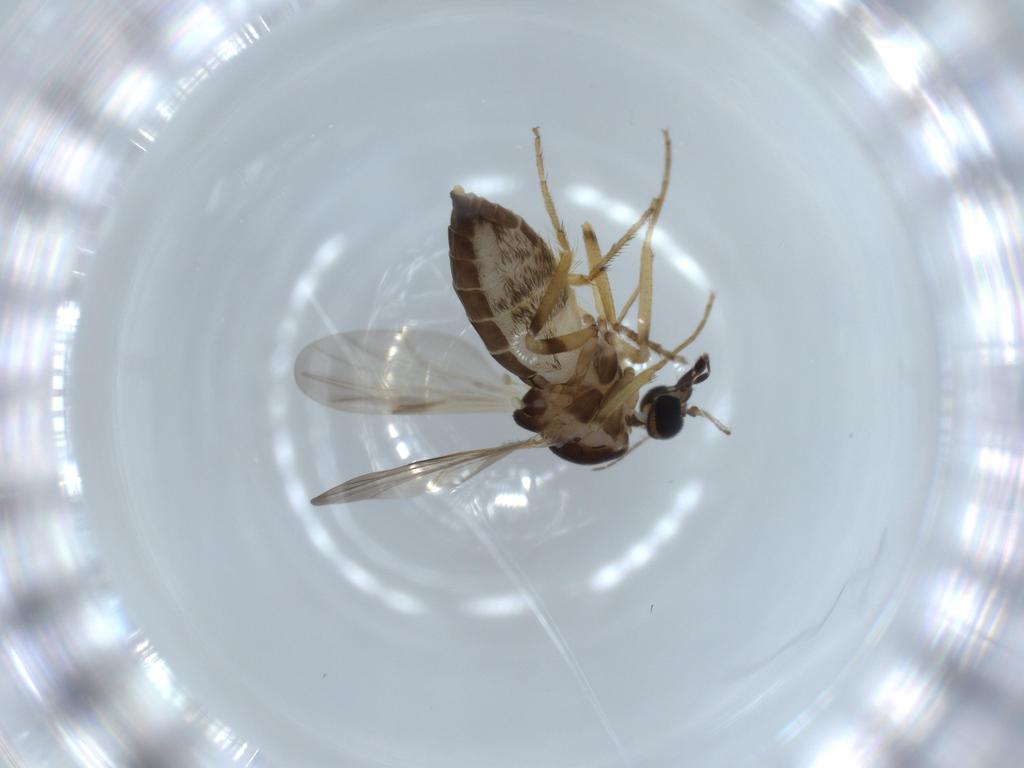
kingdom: Animalia
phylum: Arthropoda
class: Insecta
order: Diptera
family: Ceratopogonidae
